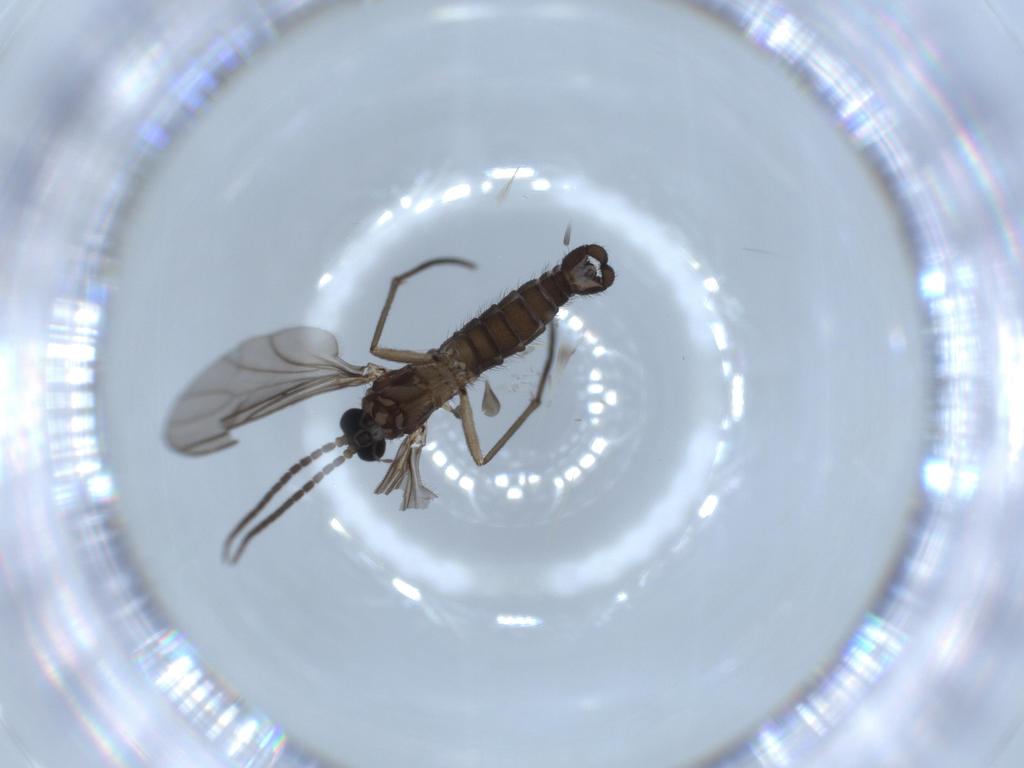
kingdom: Animalia
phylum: Arthropoda
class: Insecta
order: Diptera
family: Sciaridae
